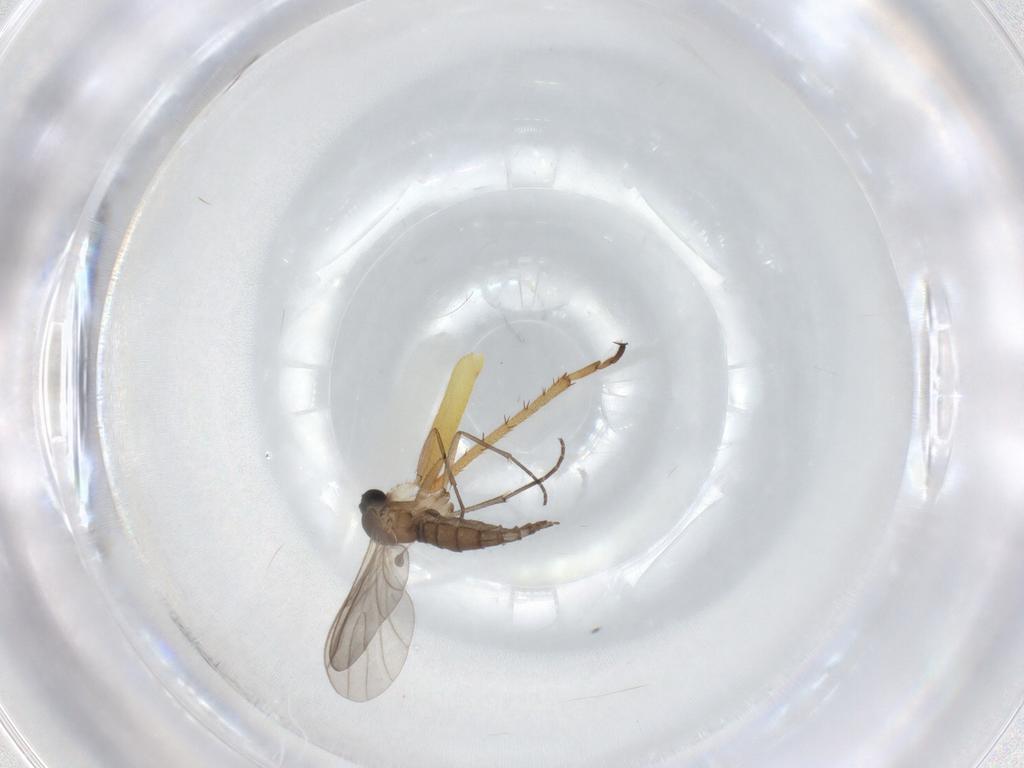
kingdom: Animalia
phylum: Arthropoda
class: Insecta
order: Diptera
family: Sciaridae
